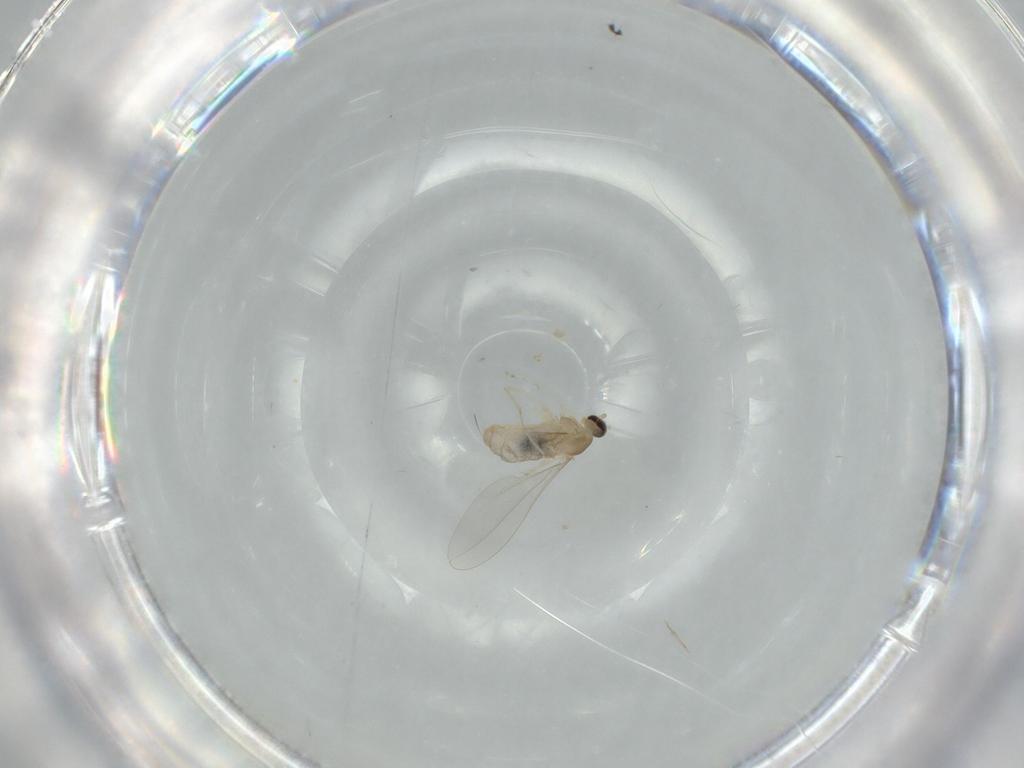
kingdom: Animalia
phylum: Arthropoda
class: Insecta
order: Diptera
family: Cecidomyiidae
